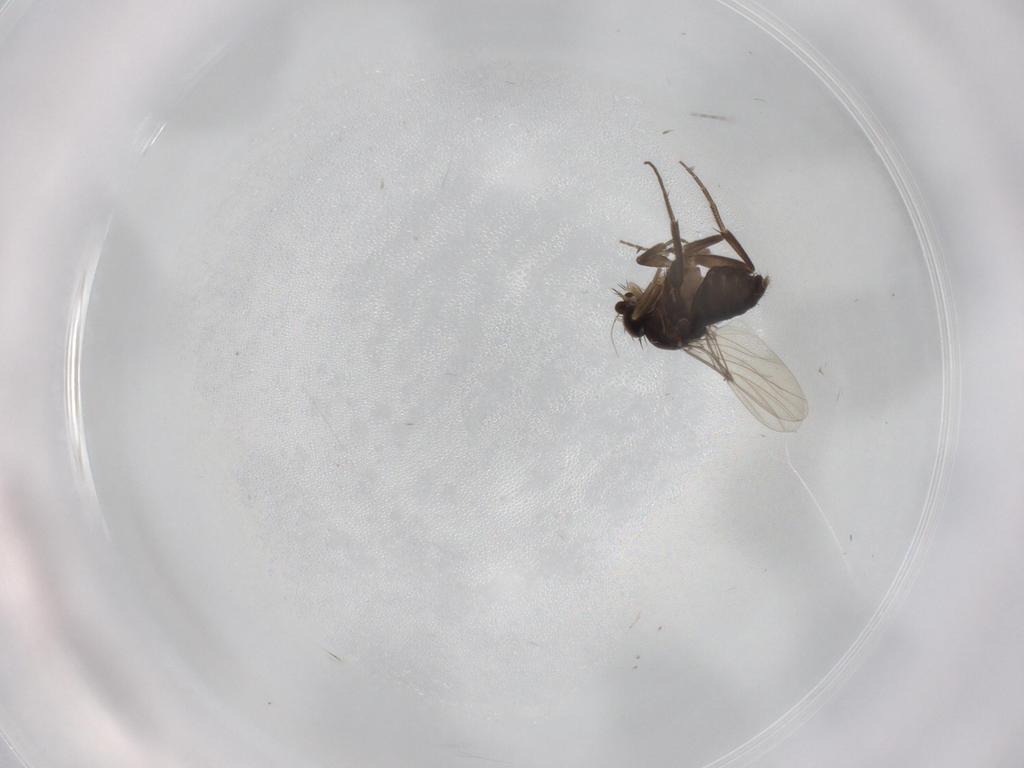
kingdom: Animalia
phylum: Arthropoda
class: Insecta
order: Diptera
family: Phoridae
